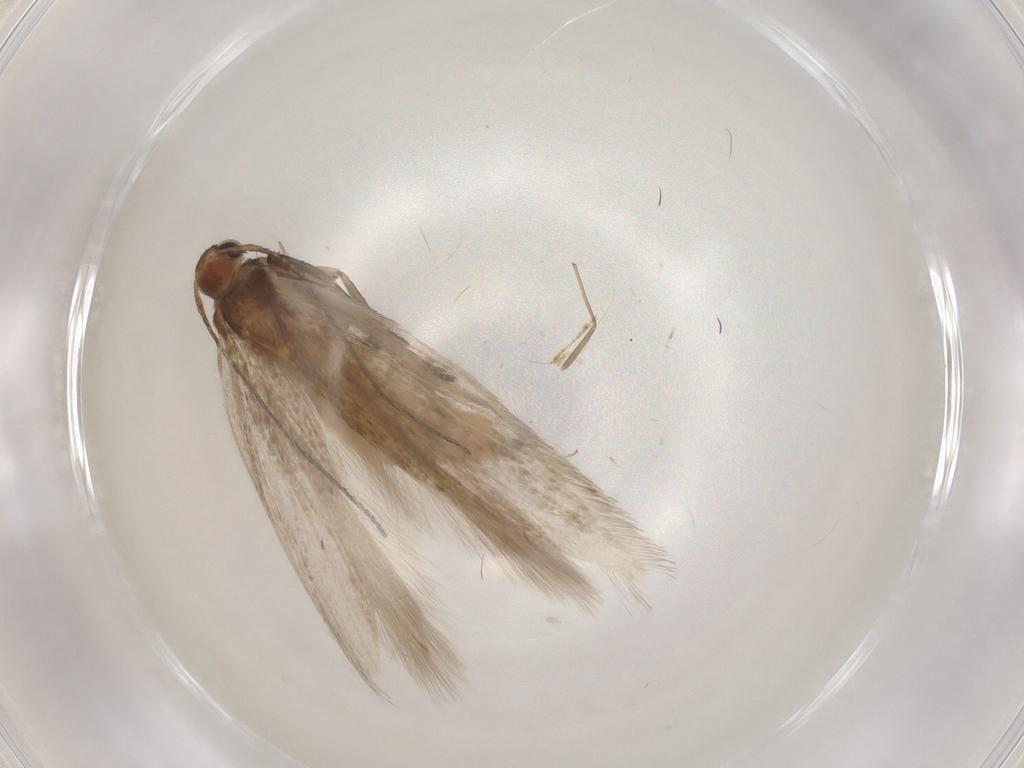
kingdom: Animalia
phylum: Arthropoda
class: Insecta
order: Lepidoptera
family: Gelechiidae
